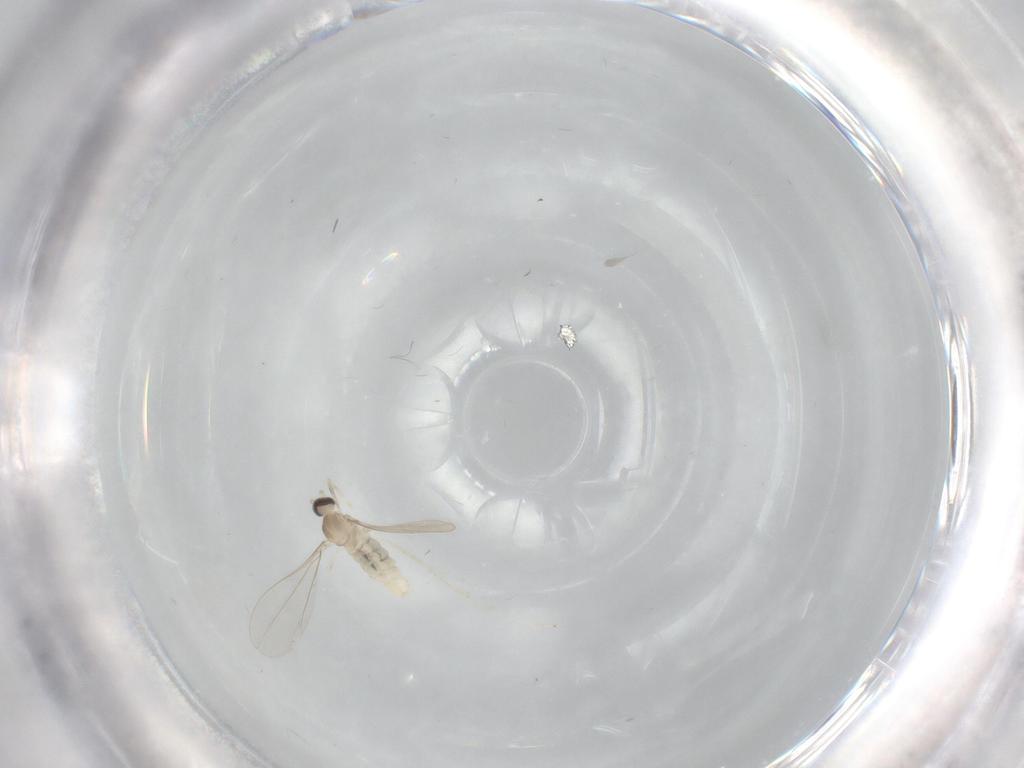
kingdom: Animalia
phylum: Arthropoda
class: Insecta
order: Diptera
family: Cecidomyiidae
